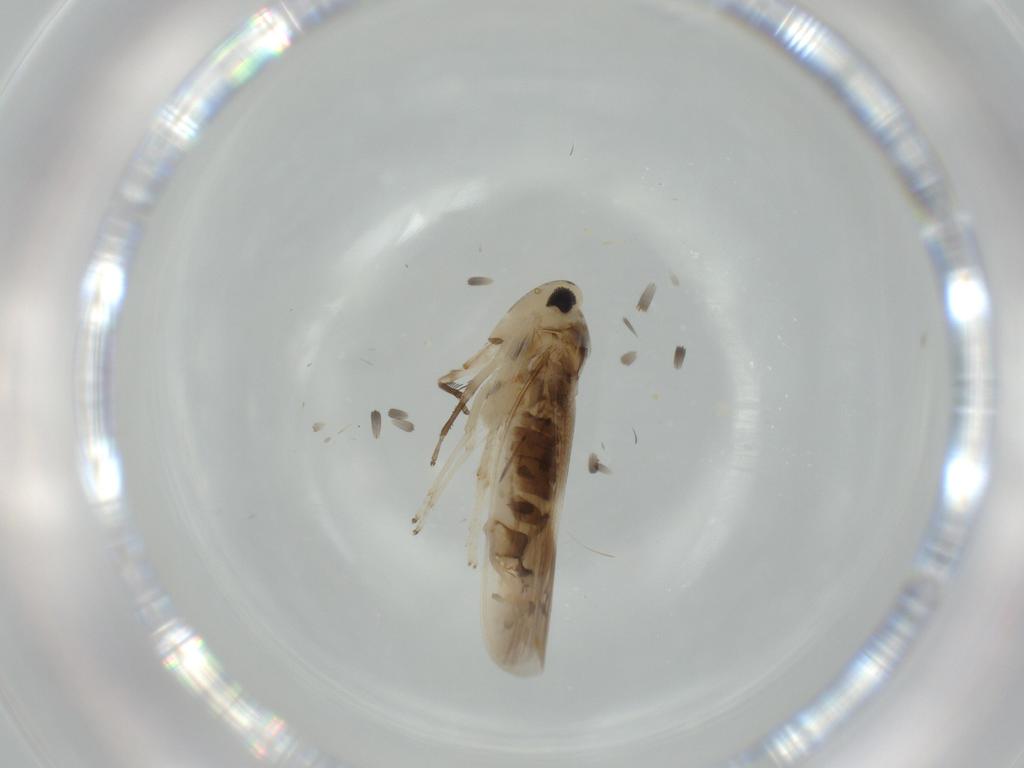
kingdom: Animalia
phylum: Arthropoda
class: Insecta
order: Hemiptera
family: Cicadellidae
